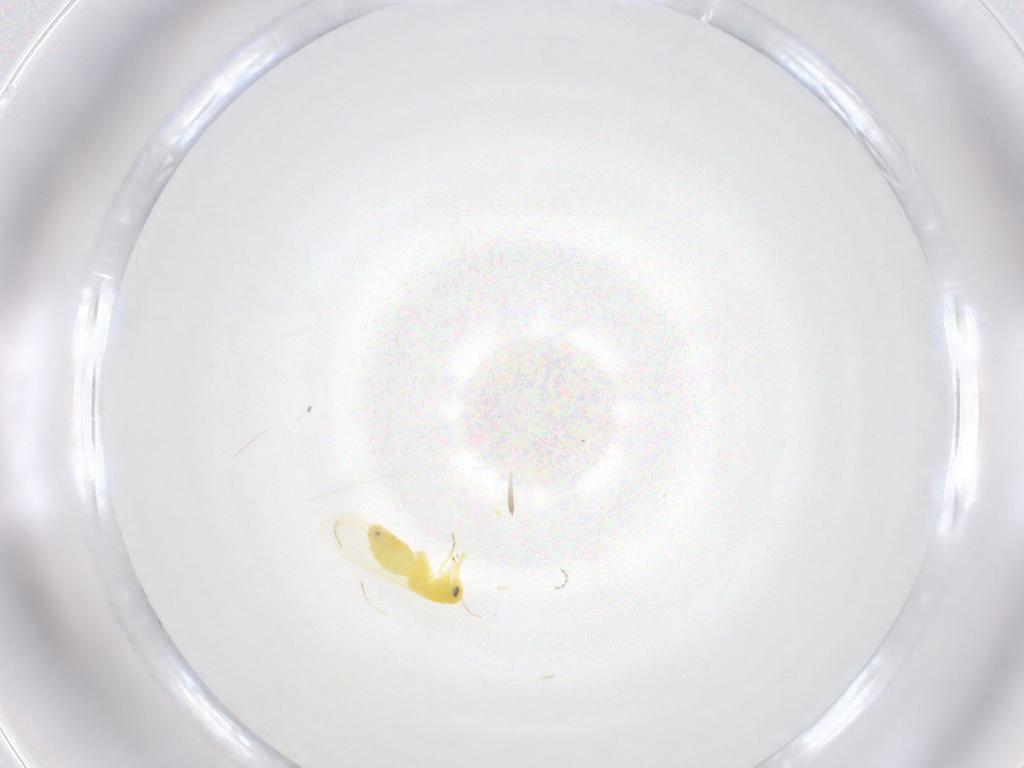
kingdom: Animalia
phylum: Arthropoda
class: Insecta
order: Hemiptera
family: Aleyrodidae
